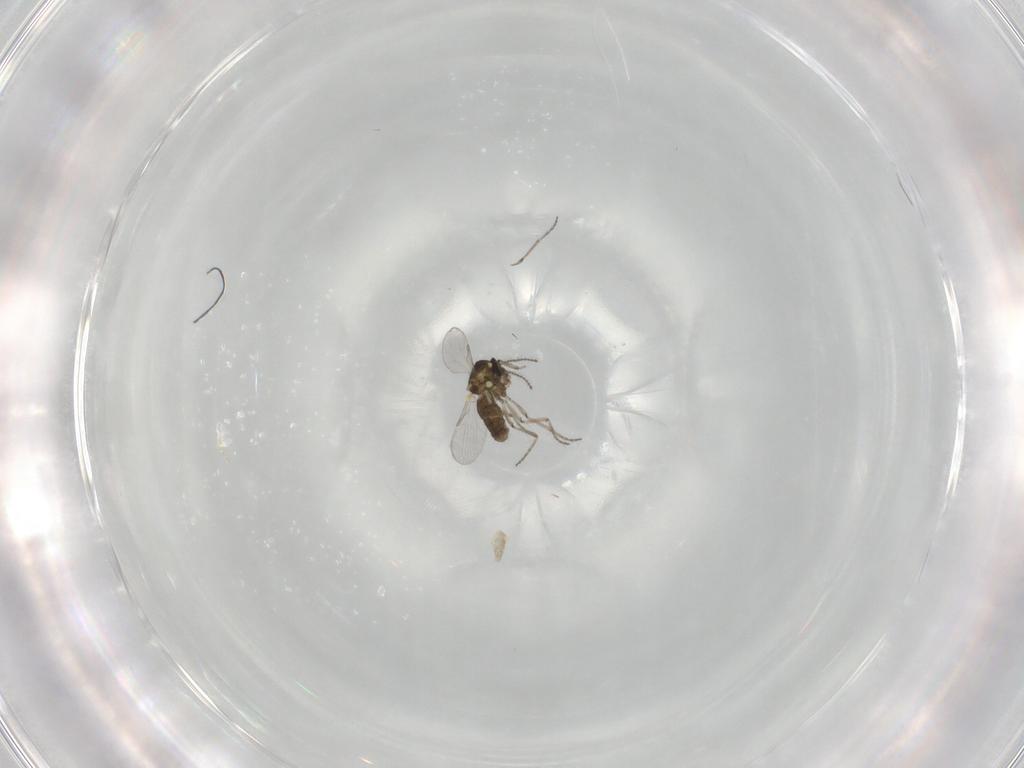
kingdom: Animalia
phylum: Arthropoda
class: Insecta
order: Diptera
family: Ceratopogonidae
